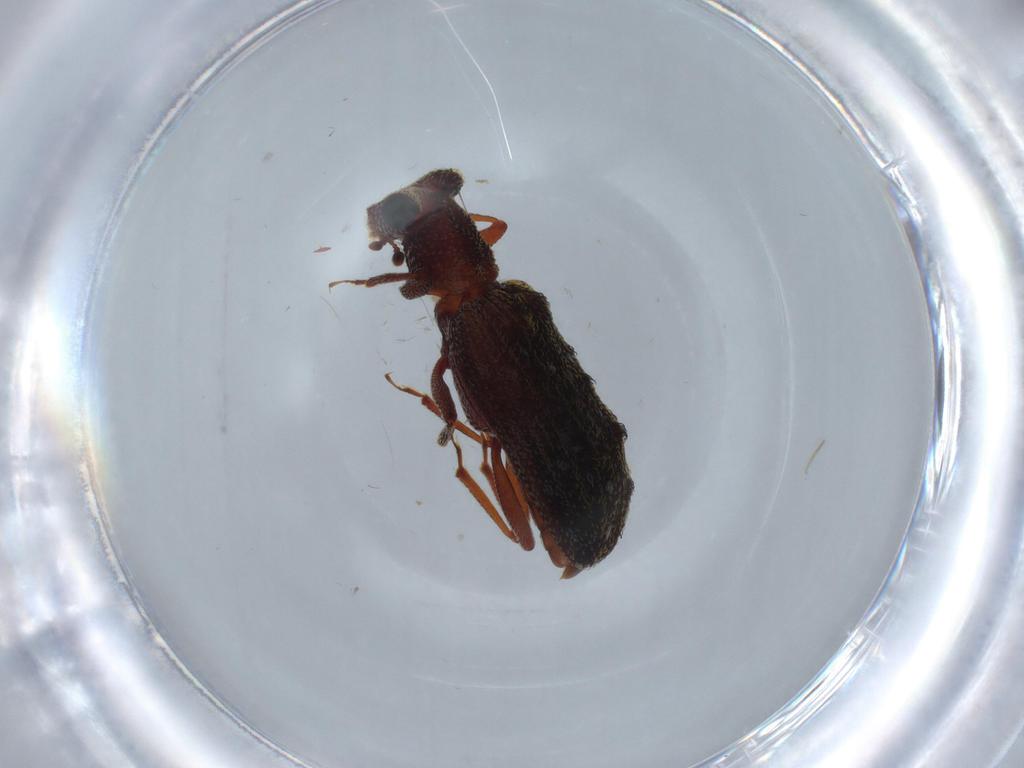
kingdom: Animalia
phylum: Arthropoda
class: Insecta
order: Coleoptera
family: Zopheridae
